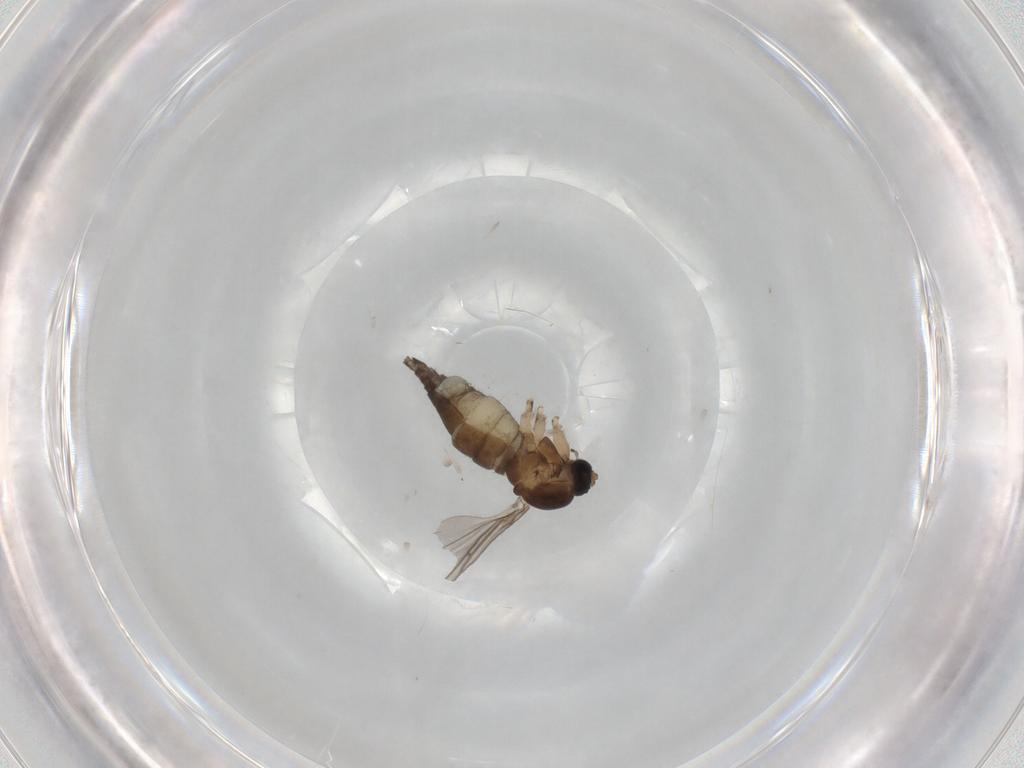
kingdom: Animalia
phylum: Arthropoda
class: Insecta
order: Diptera
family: Sciaridae
